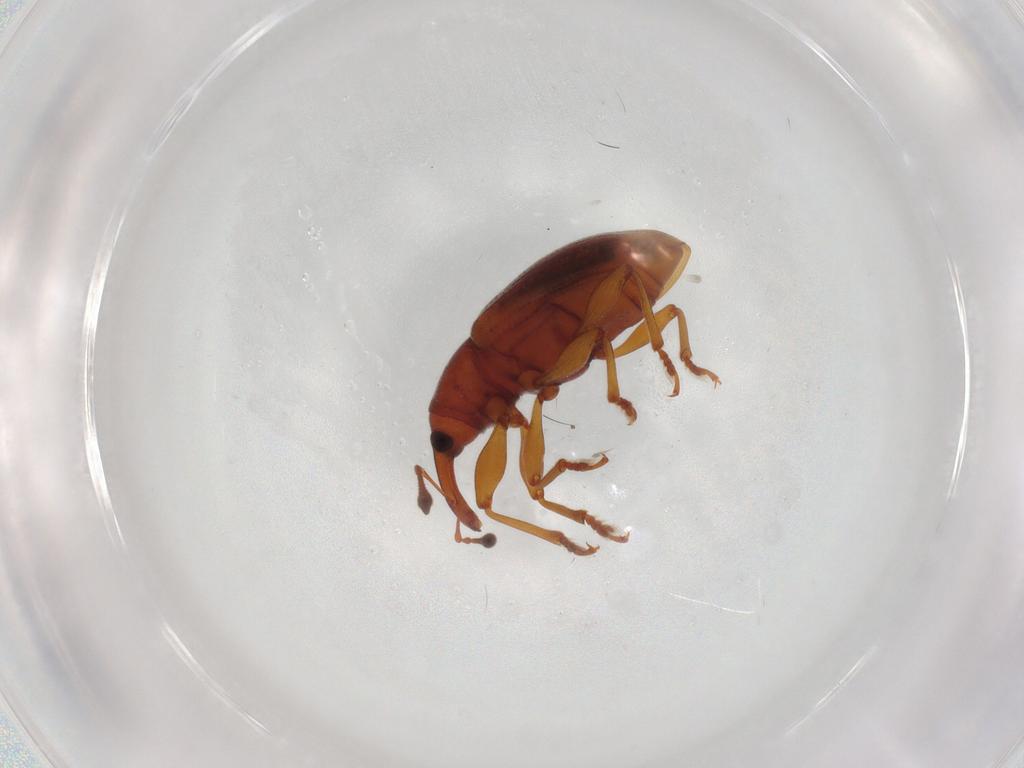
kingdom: Animalia
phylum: Arthropoda
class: Insecta
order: Coleoptera
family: Curculionidae
